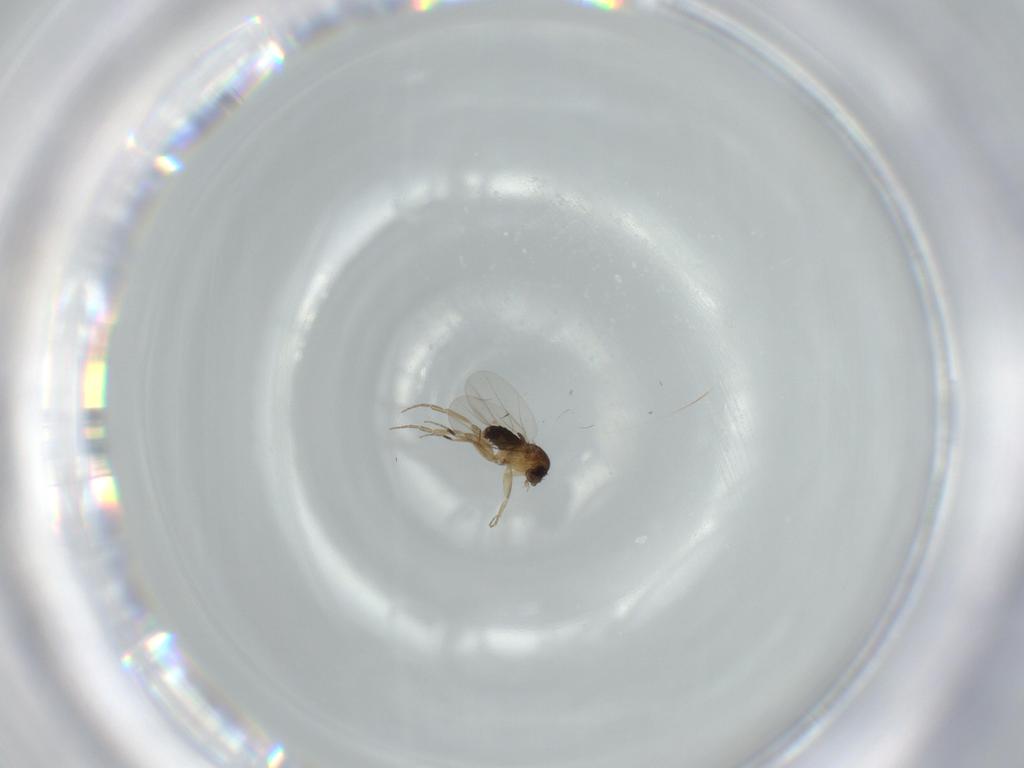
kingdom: Animalia
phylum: Arthropoda
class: Insecta
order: Diptera
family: Phoridae
